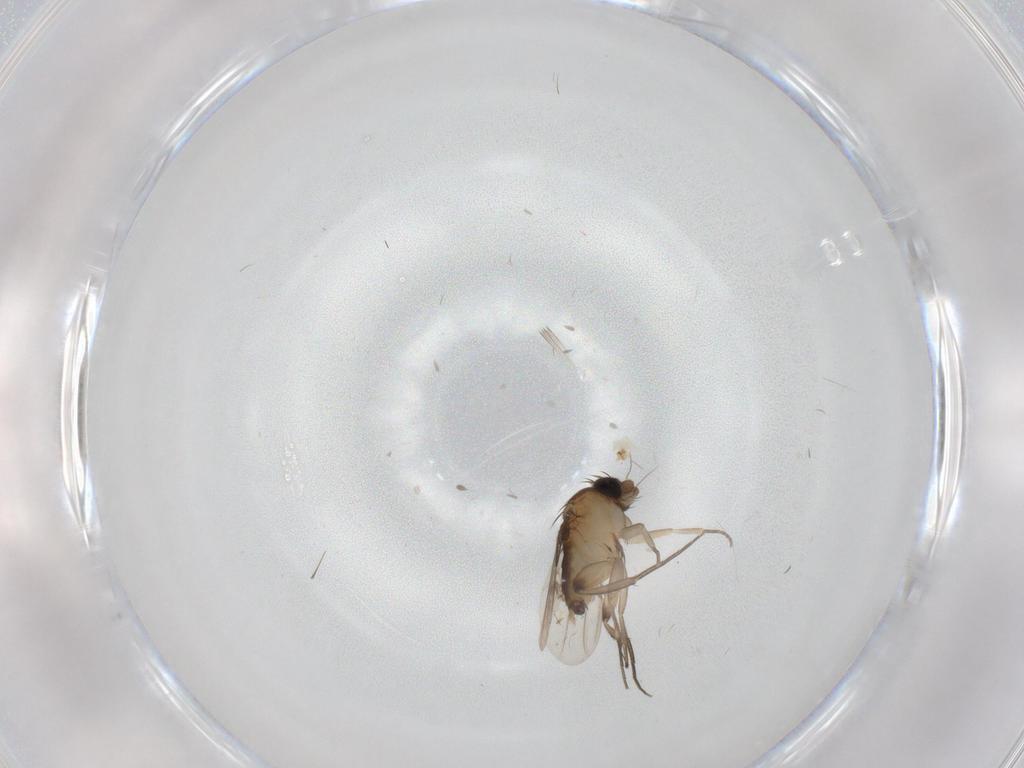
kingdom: Animalia
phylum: Arthropoda
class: Insecta
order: Diptera
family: Phoridae
